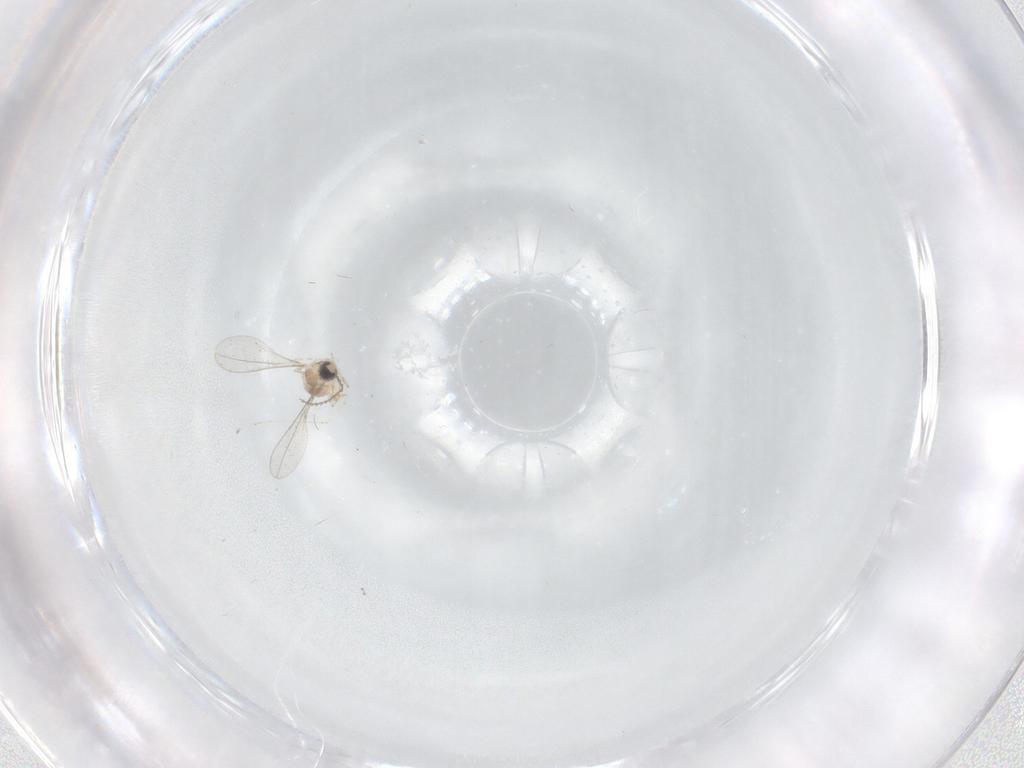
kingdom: Animalia
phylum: Arthropoda
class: Insecta
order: Diptera
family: Cecidomyiidae
